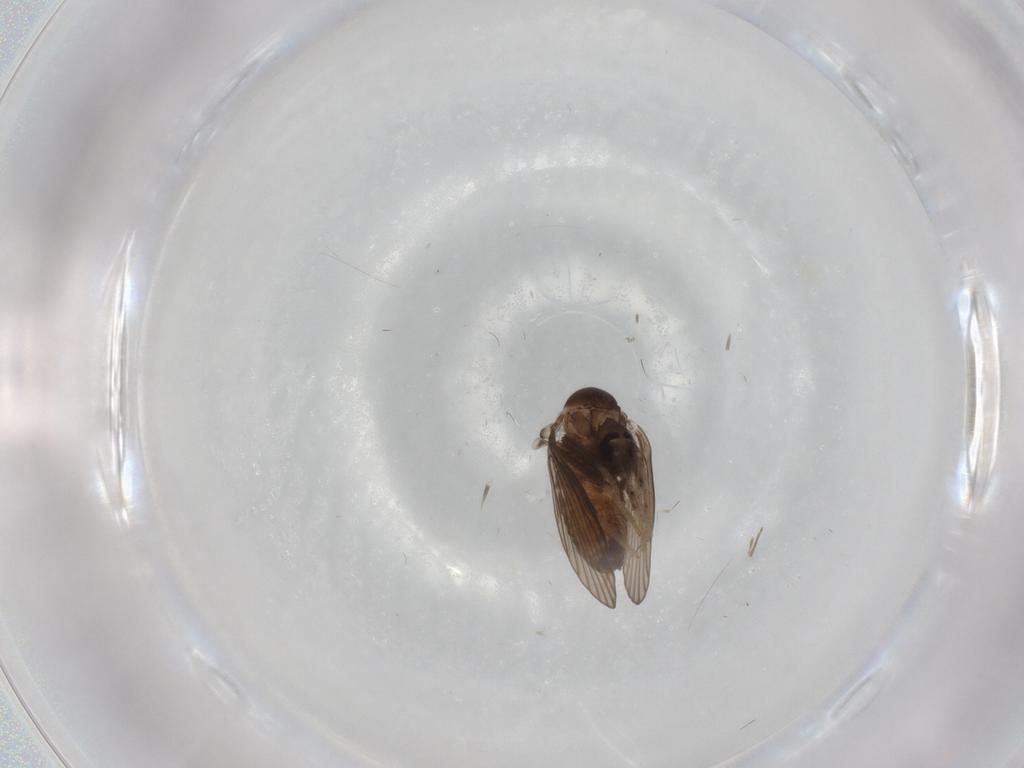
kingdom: Animalia
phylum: Arthropoda
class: Insecta
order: Diptera
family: Psychodidae
